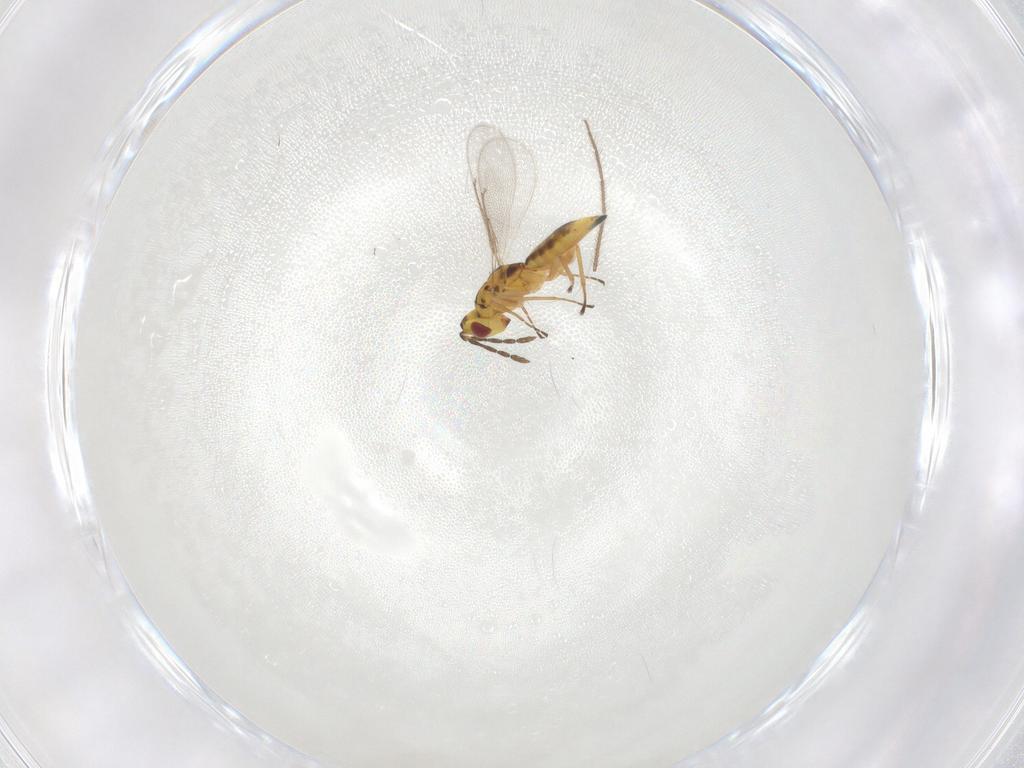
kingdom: Animalia
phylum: Arthropoda
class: Insecta
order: Hymenoptera
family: Eulophidae
